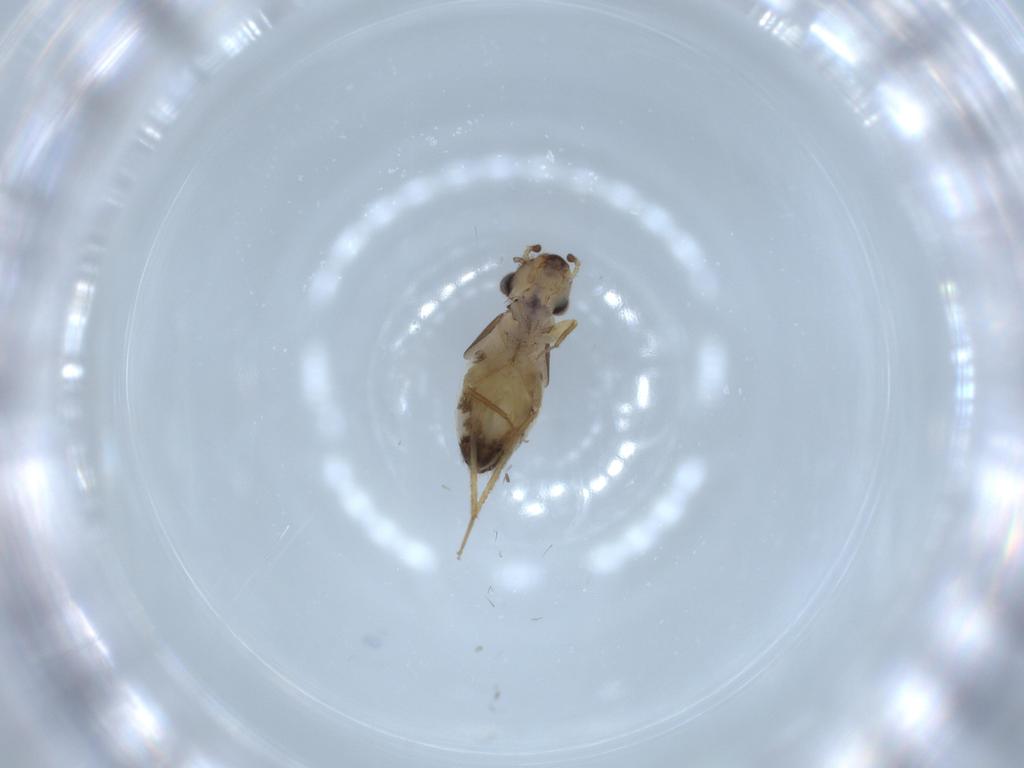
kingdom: Animalia
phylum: Arthropoda
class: Insecta
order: Psocodea
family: Lepidopsocidae
